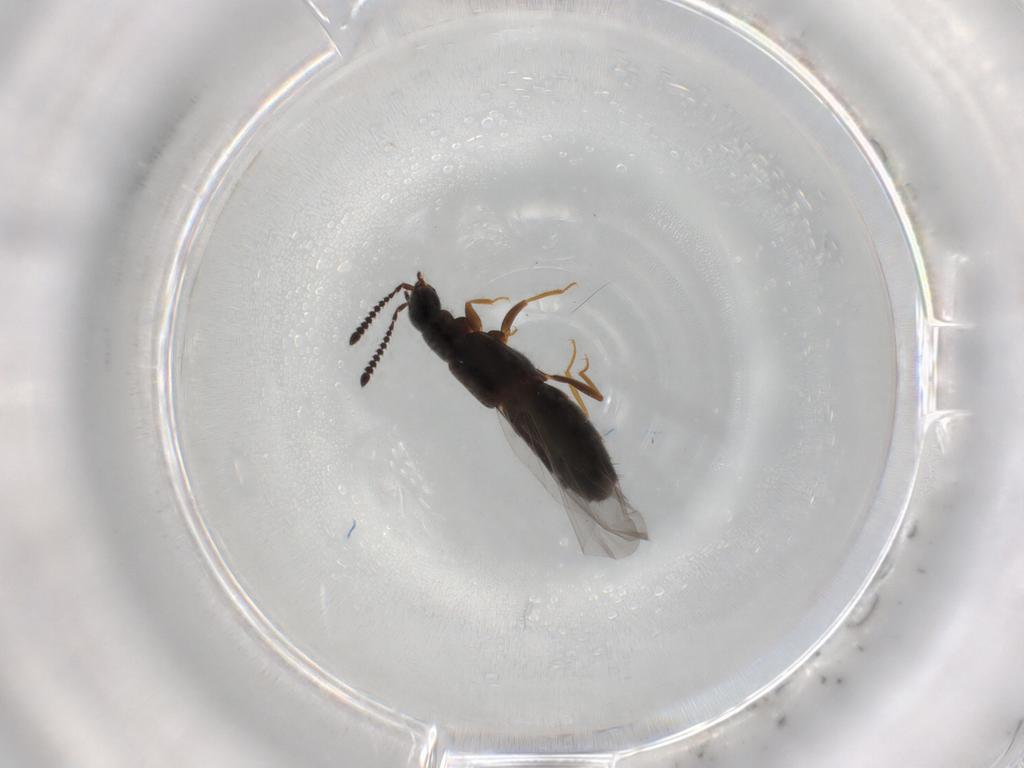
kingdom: Animalia
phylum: Arthropoda
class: Insecta
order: Coleoptera
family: Staphylinidae
